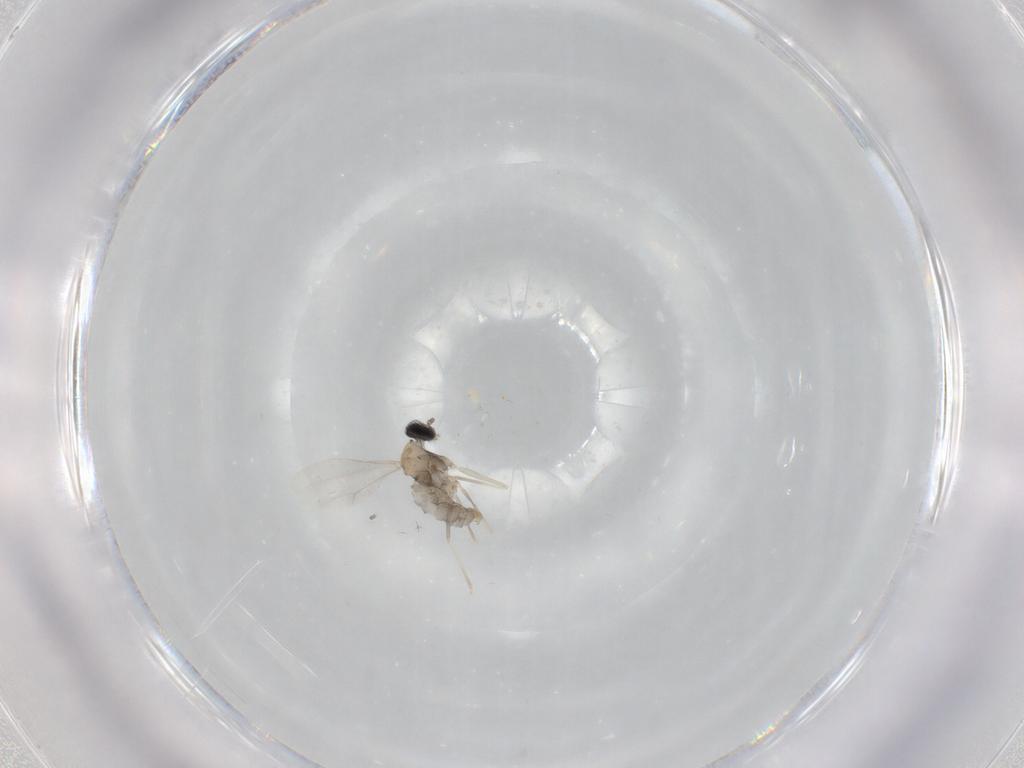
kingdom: Animalia
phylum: Arthropoda
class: Insecta
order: Diptera
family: Cecidomyiidae
